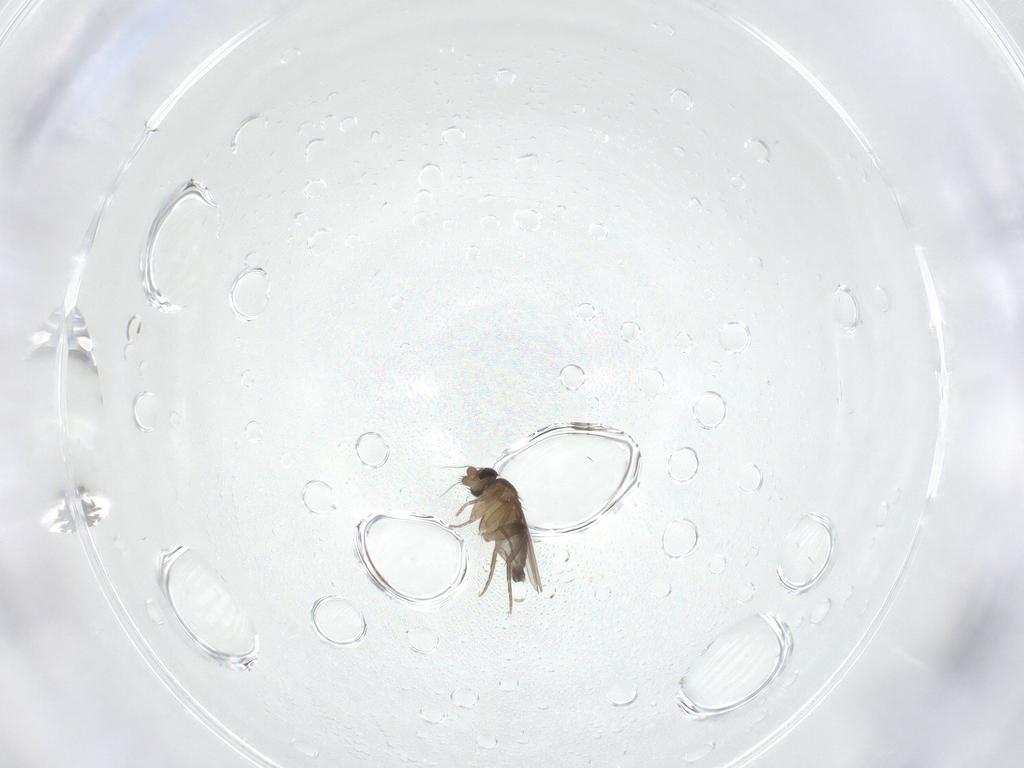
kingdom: Animalia
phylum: Arthropoda
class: Insecta
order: Diptera
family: Phoridae
